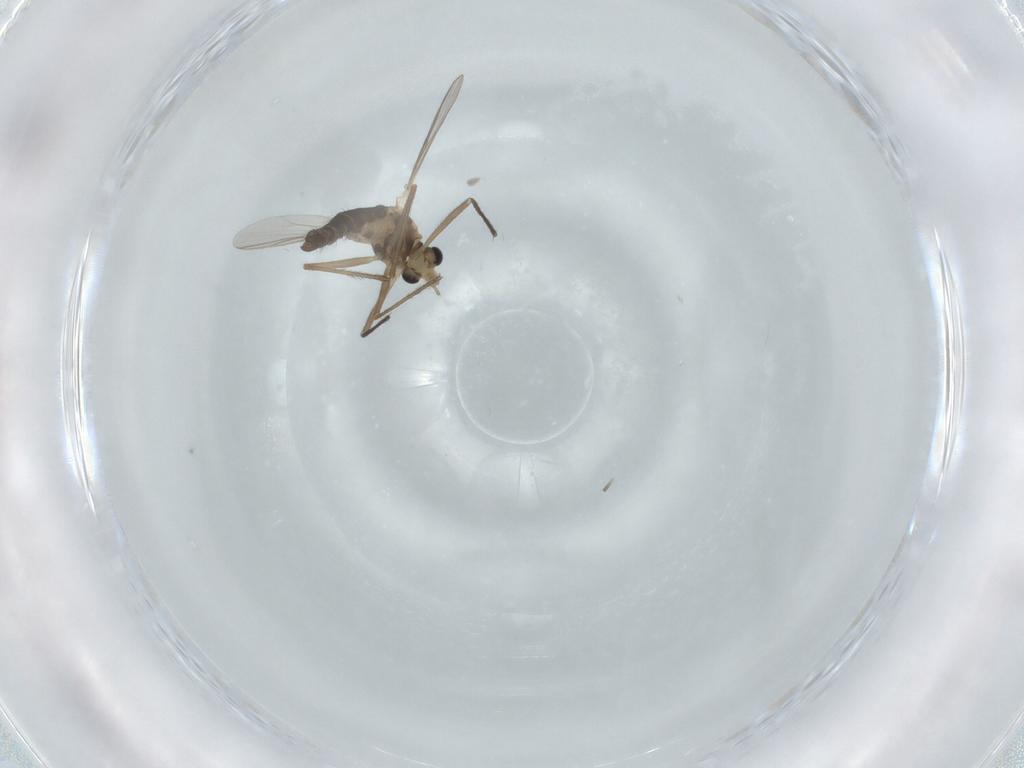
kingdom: Animalia
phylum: Arthropoda
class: Insecta
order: Diptera
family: Chironomidae
